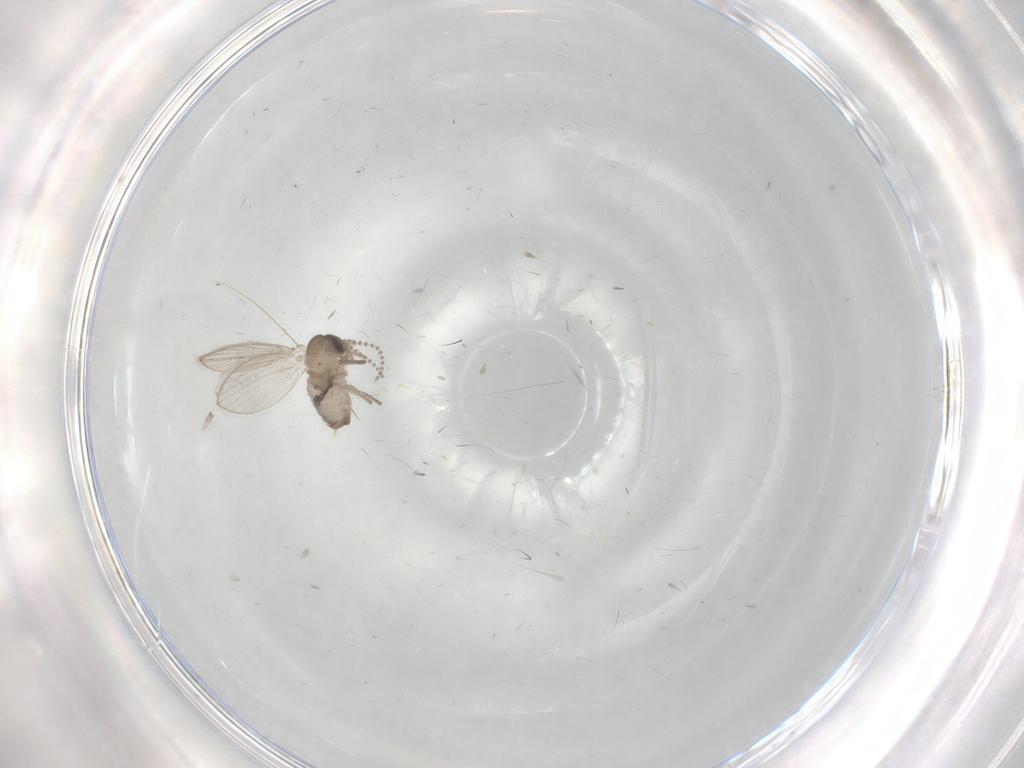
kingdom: Animalia
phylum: Arthropoda
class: Insecta
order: Diptera
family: Psychodidae
